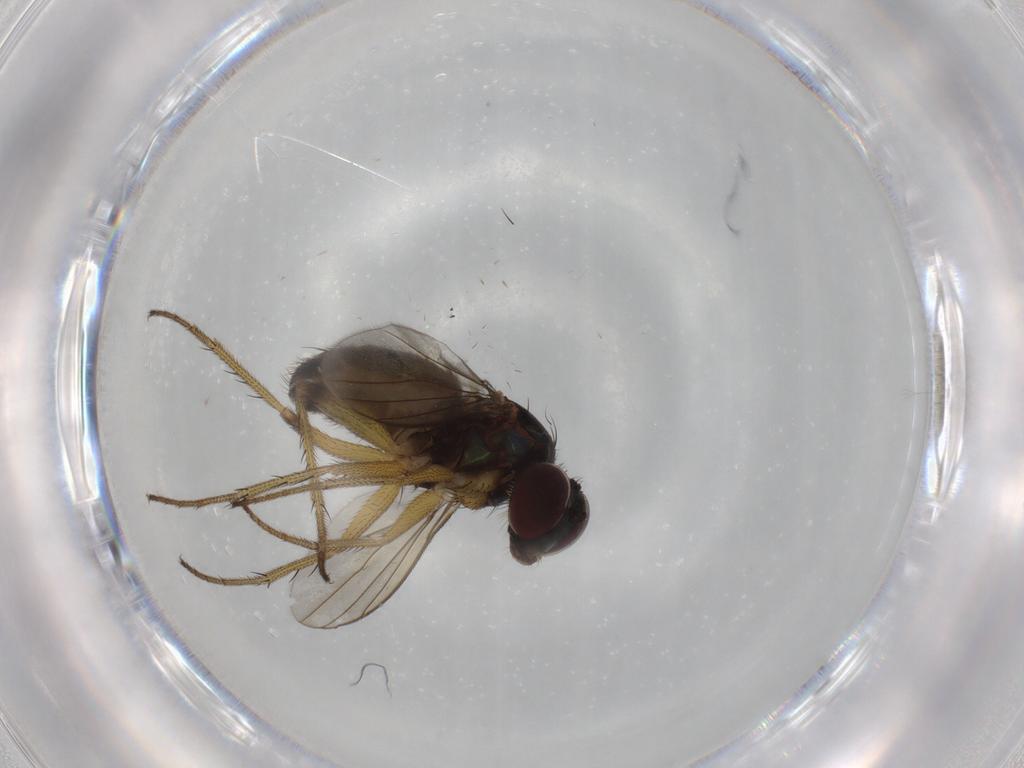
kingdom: Animalia
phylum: Arthropoda
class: Insecta
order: Diptera
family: Dolichopodidae
